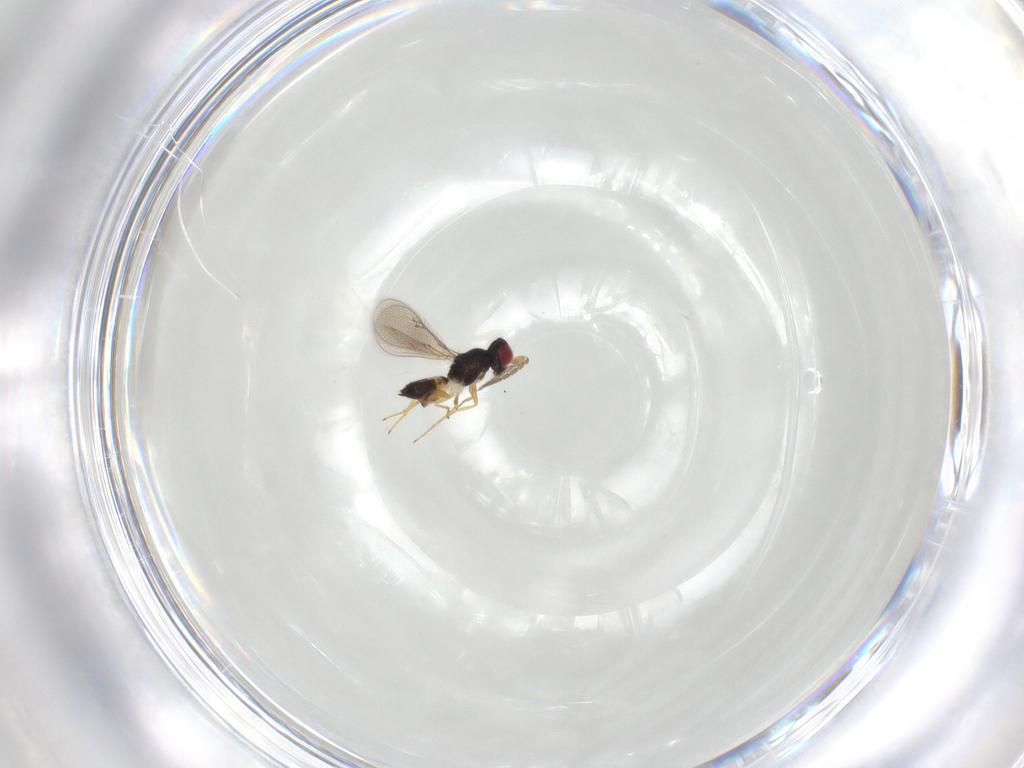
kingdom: Animalia
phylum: Arthropoda
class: Insecta
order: Hymenoptera
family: Eulophidae
